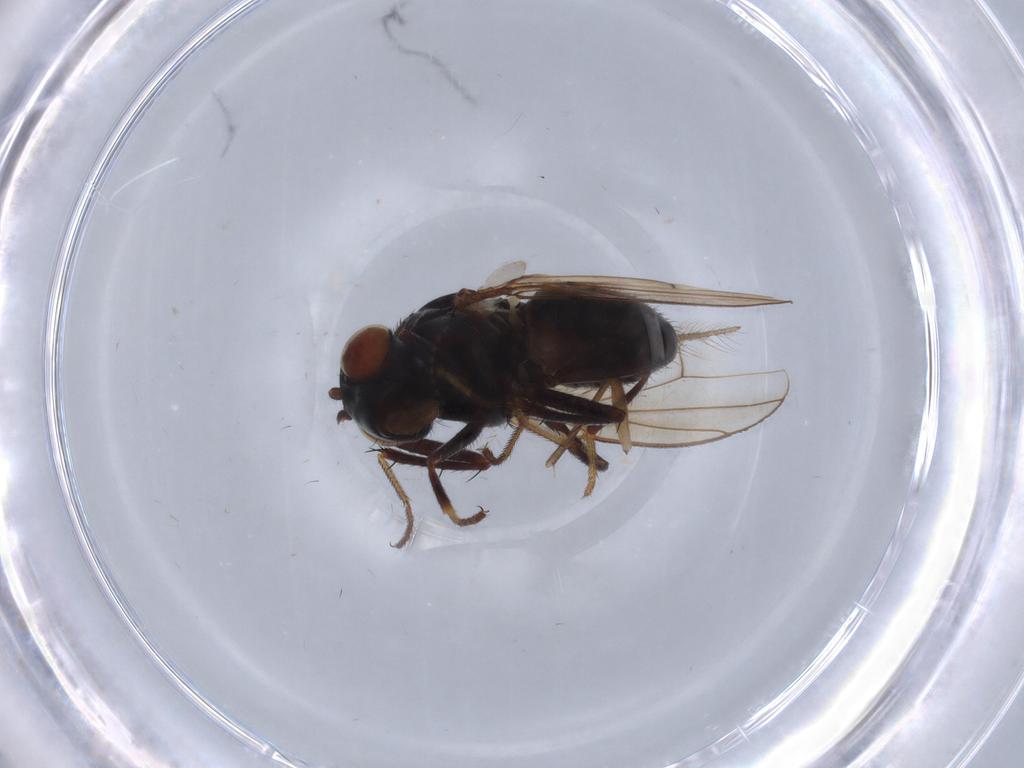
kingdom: Animalia
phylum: Arthropoda
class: Insecta
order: Diptera
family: Ephydridae
